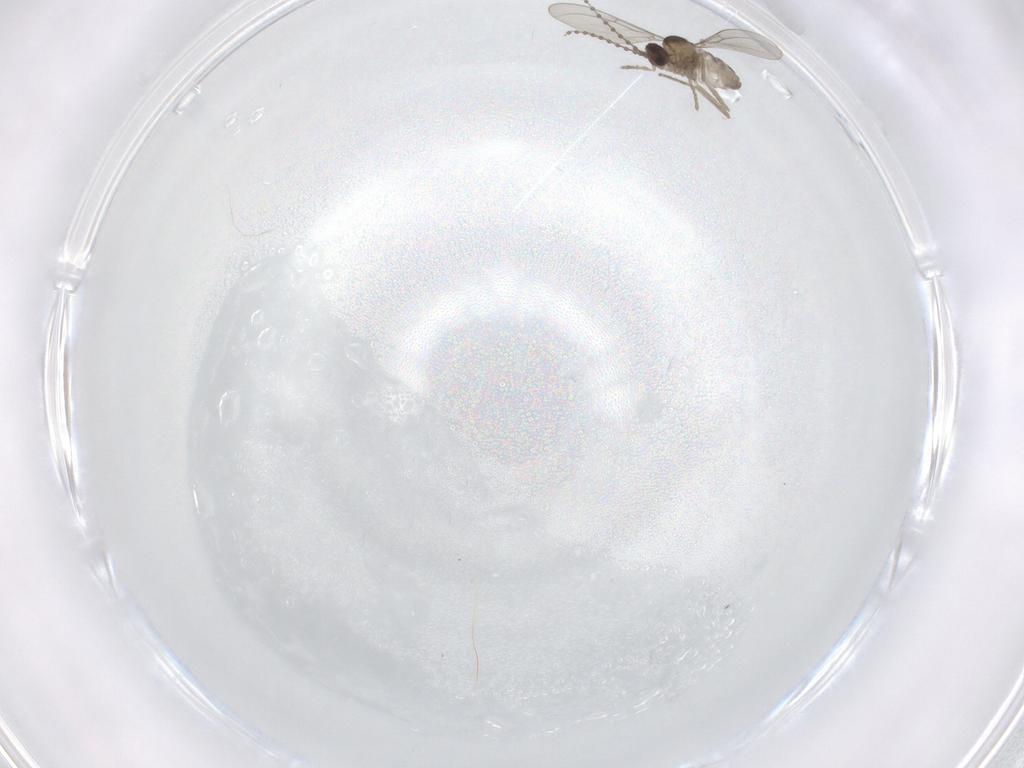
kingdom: Animalia
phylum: Arthropoda
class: Insecta
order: Diptera
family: Cecidomyiidae
